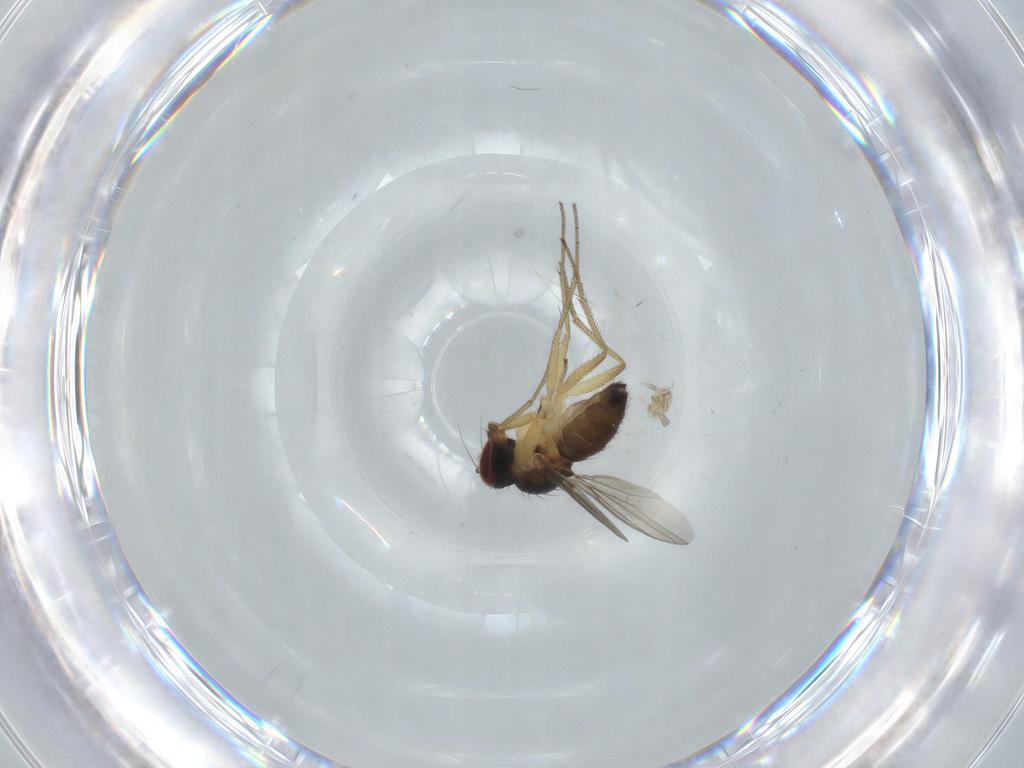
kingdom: Animalia
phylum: Arthropoda
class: Insecta
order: Diptera
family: Dolichopodidae
